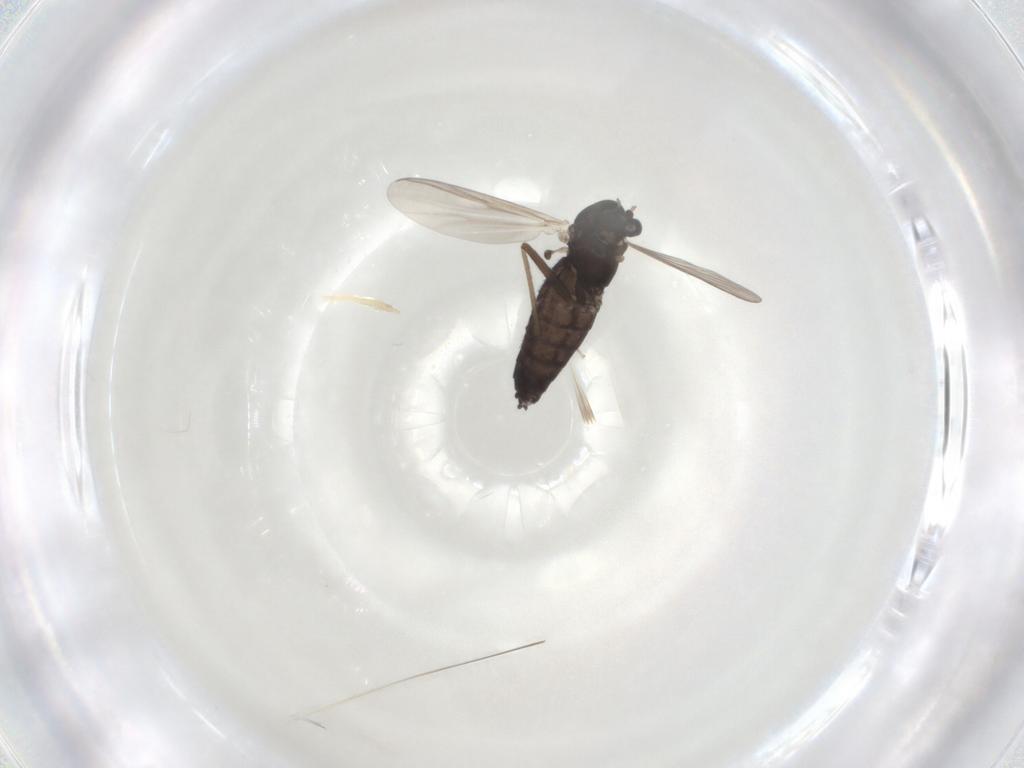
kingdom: Animalia
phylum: Arthropoda
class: Insecta
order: Diptera
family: Chironomidae
